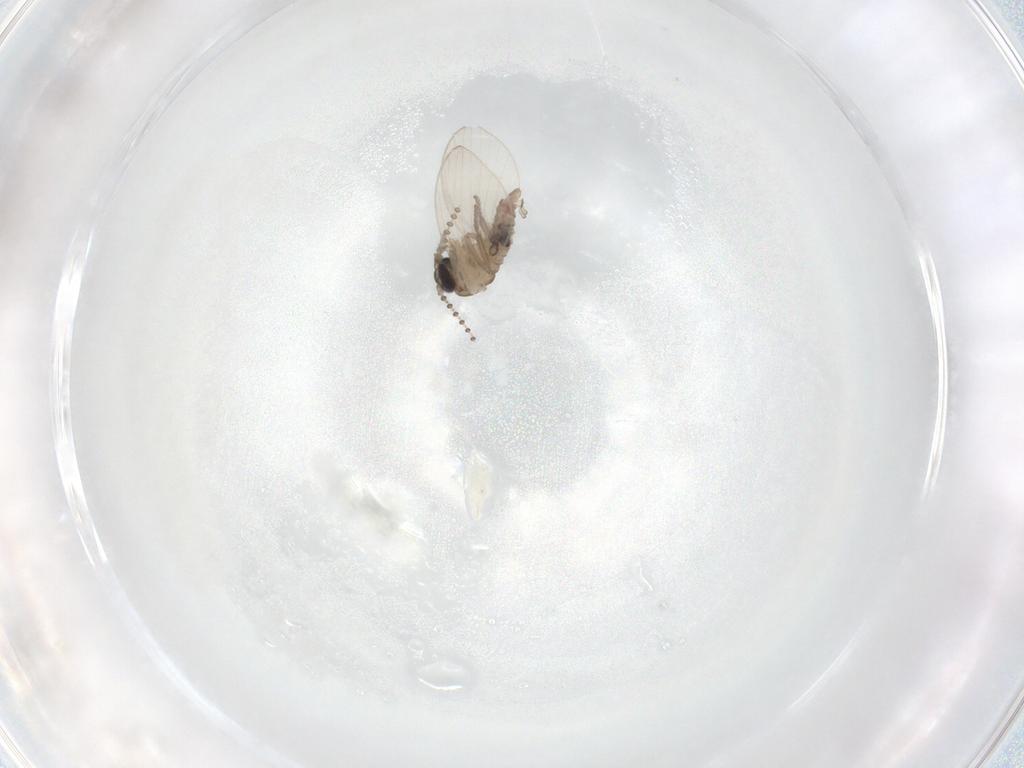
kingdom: Animalia
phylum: Arthropoda
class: Insecta
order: Diptera
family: Psychodidae
